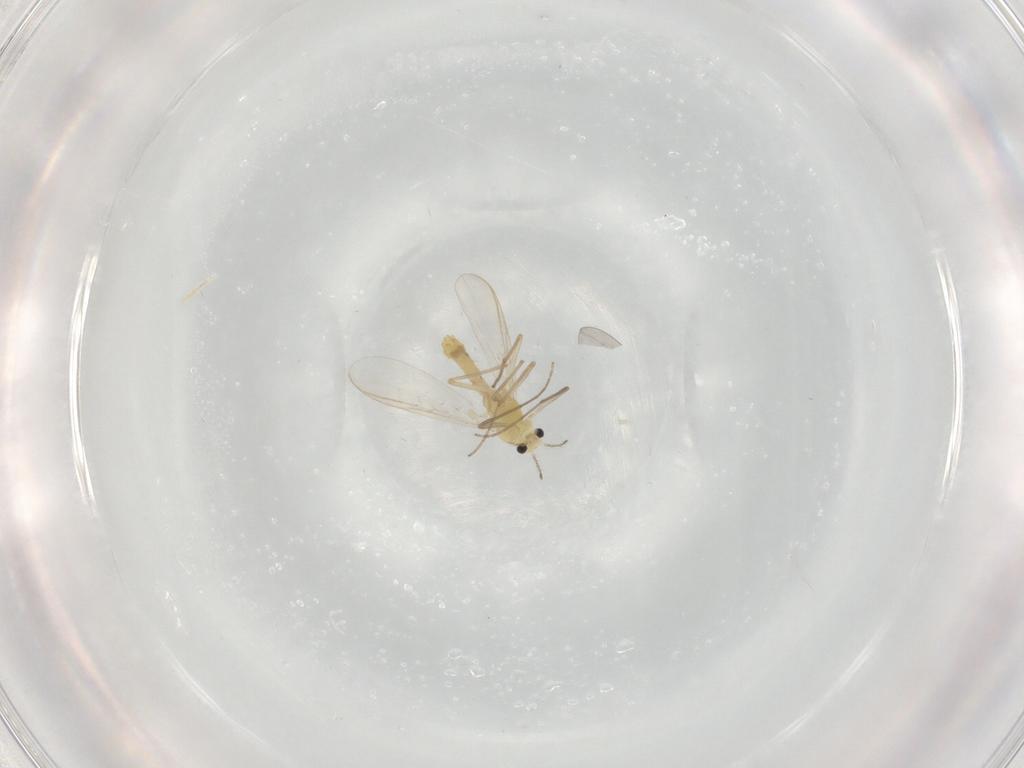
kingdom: Animalia
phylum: Arthropoda
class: Insecta
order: Diptera
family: Chironomidae
